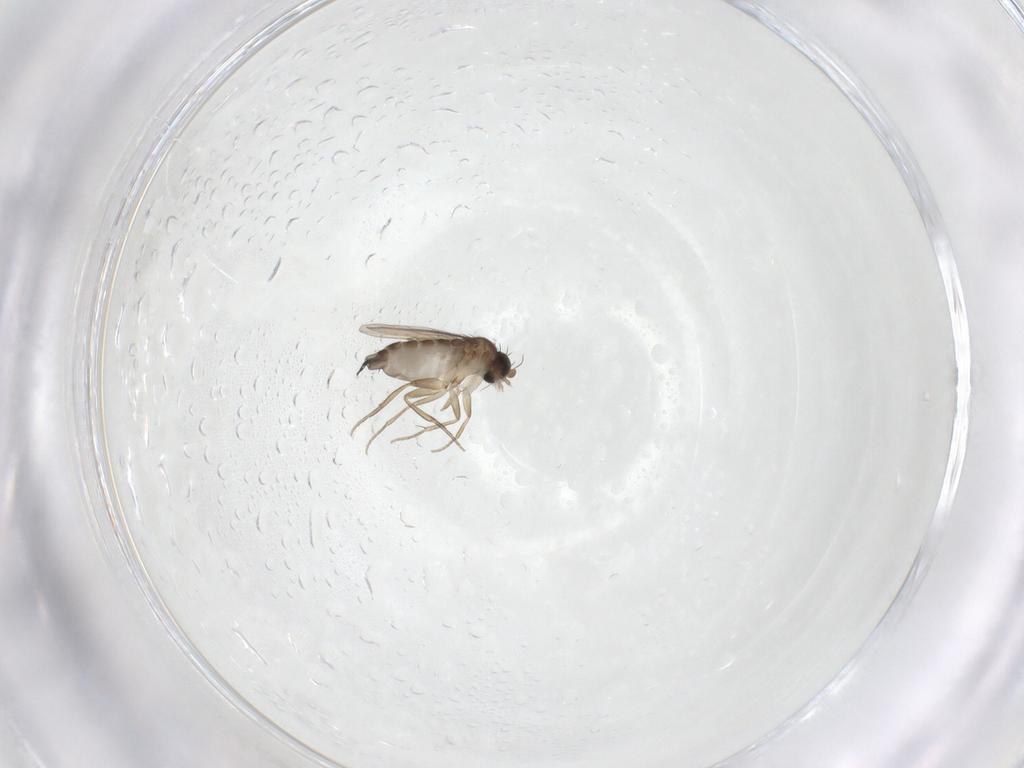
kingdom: Animalia
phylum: Arthropoda
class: Insecta
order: Diptera
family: Phoridae
